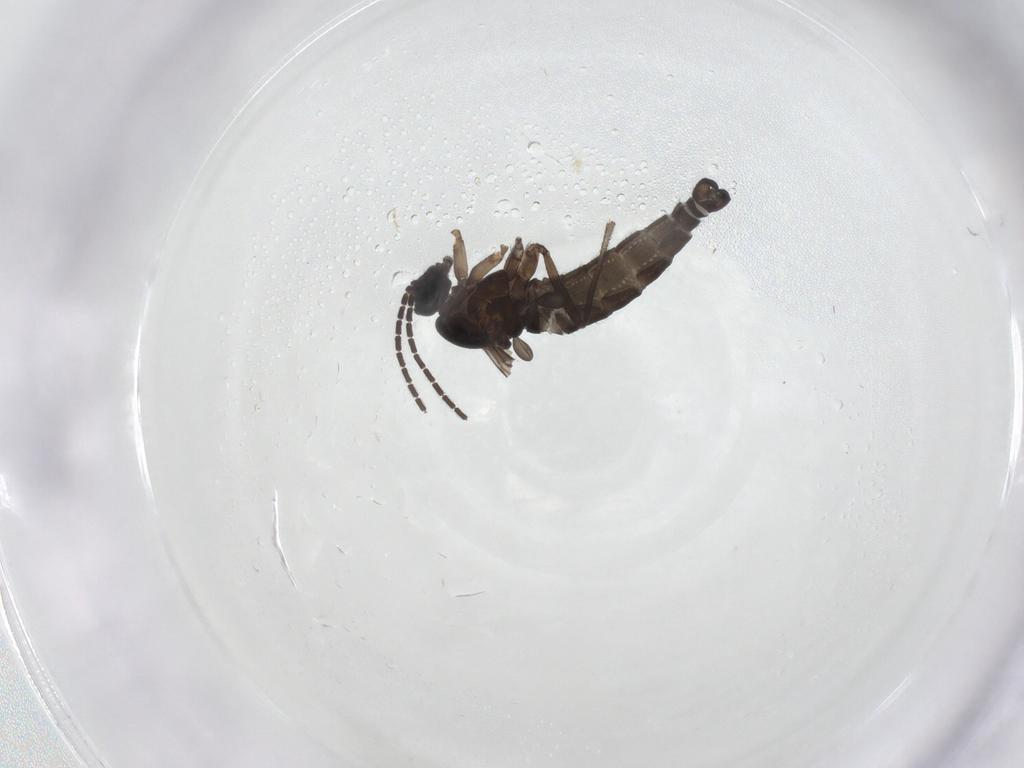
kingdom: Animalia
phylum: Arthropoda
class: Insecta
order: Diptera
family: Sciaridae
